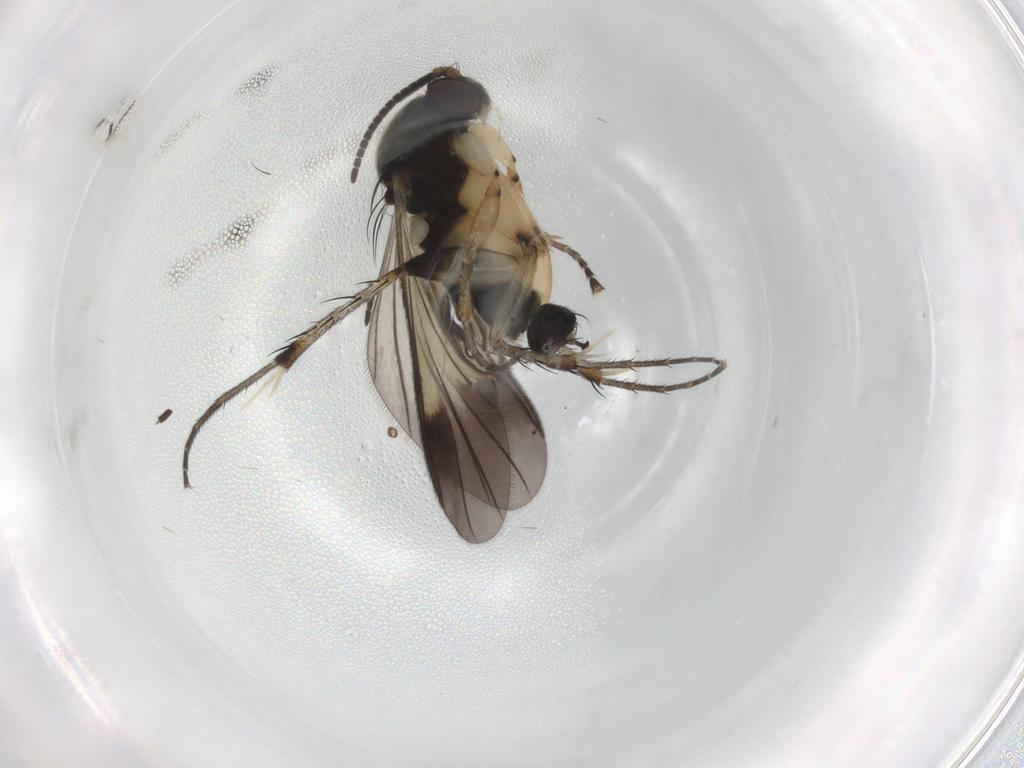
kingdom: Animalia
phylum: Arthropoda
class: Insecta
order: Diptera
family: Mycetophilidae
